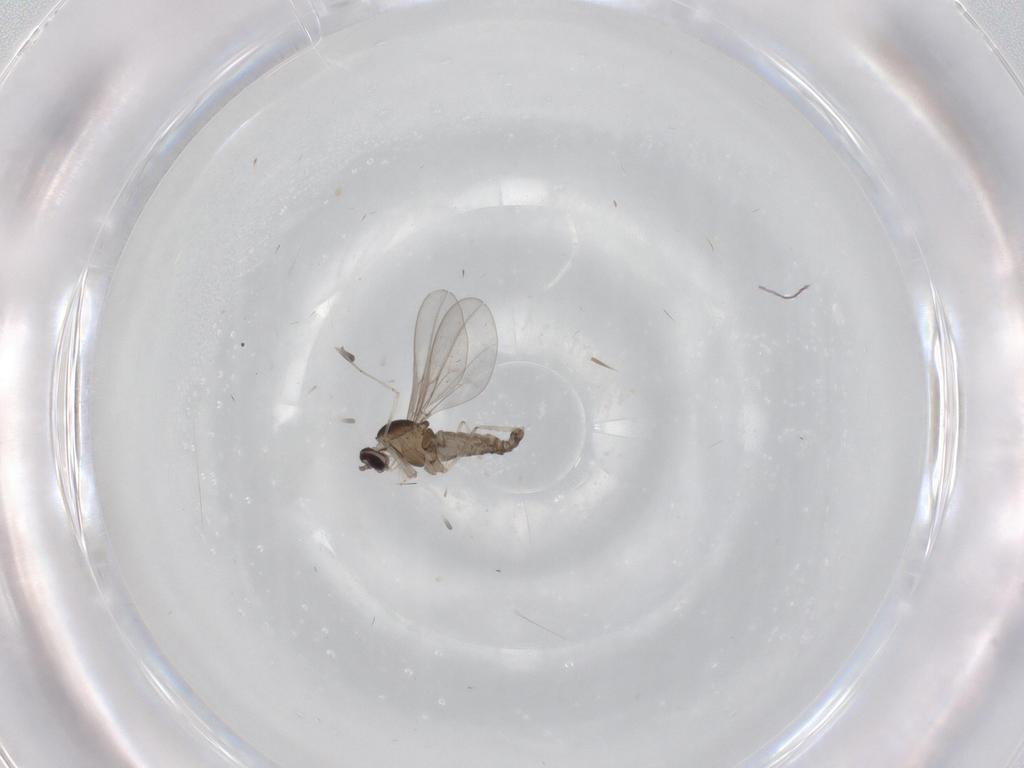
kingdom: Animalia
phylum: Arthropoda
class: Insecta
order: Diptera
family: Cecidomyiidae
